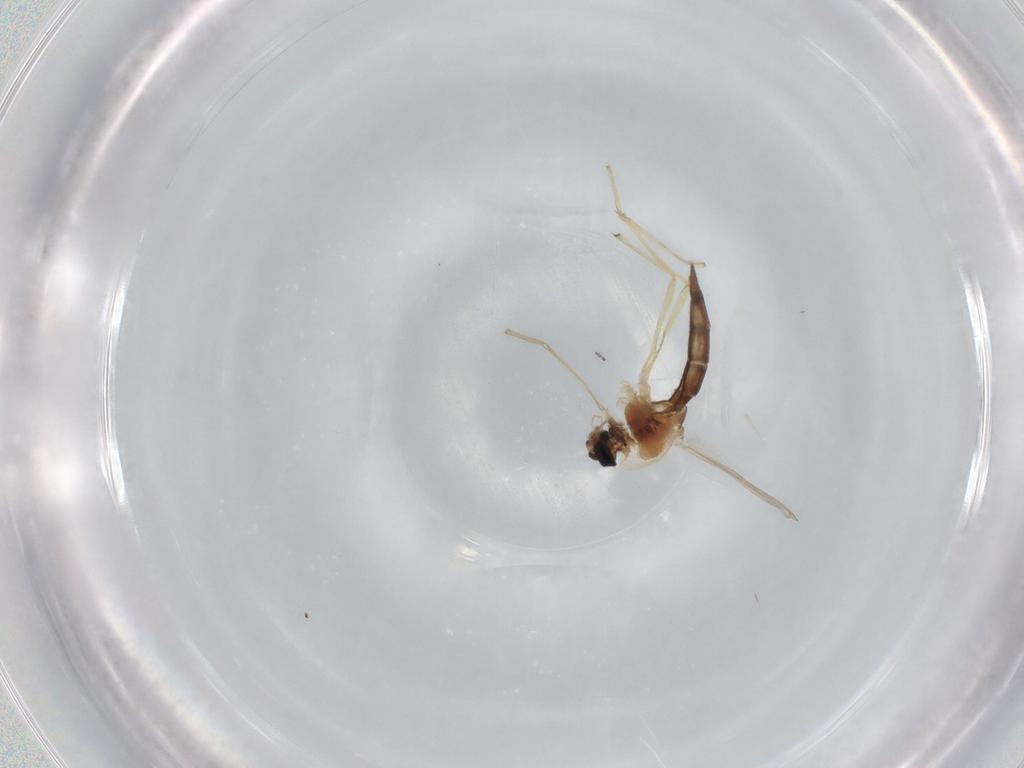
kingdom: Animalia
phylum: Arthropoda
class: Insecta
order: Diptera
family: Chironomidae
